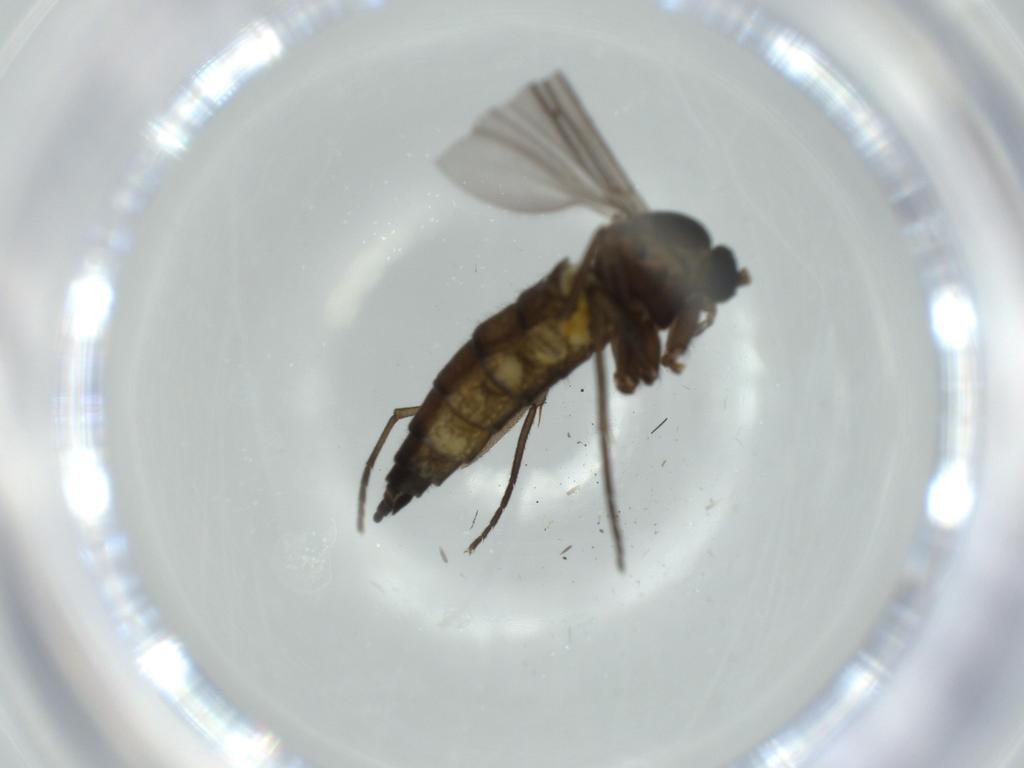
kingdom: Animalia
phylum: Arthropoda
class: Insecta
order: Diptera
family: Sciaridae
